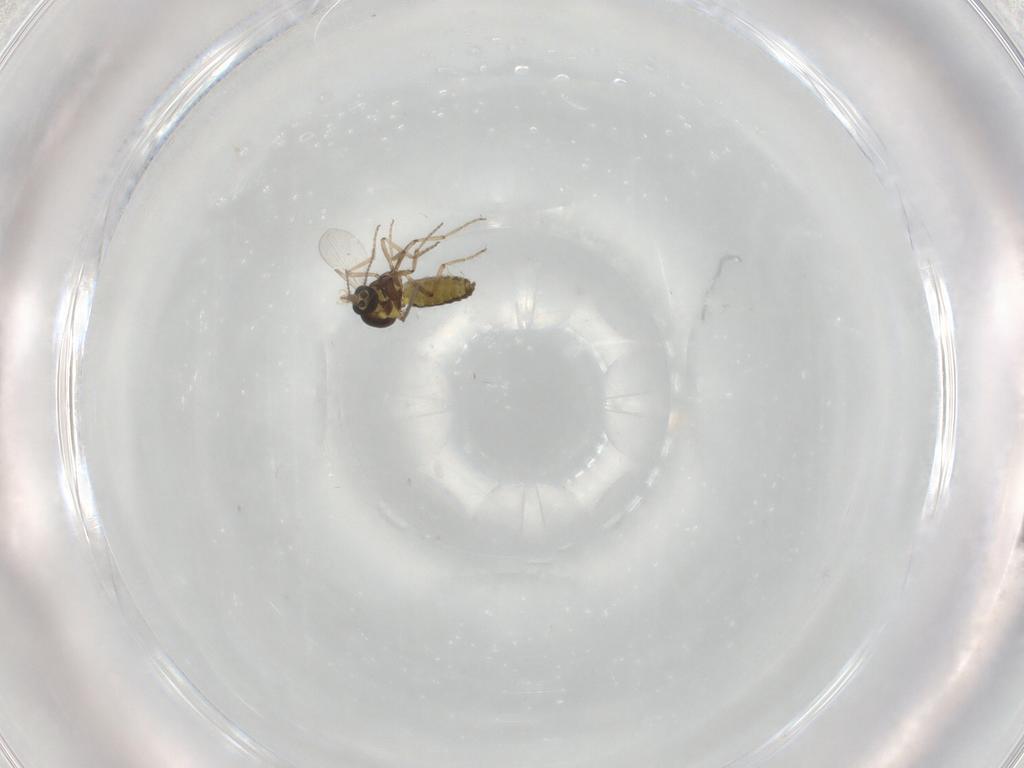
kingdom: Animalia
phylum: Arthropoda
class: Insecta
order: Diptera
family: Ceratopogonidae
